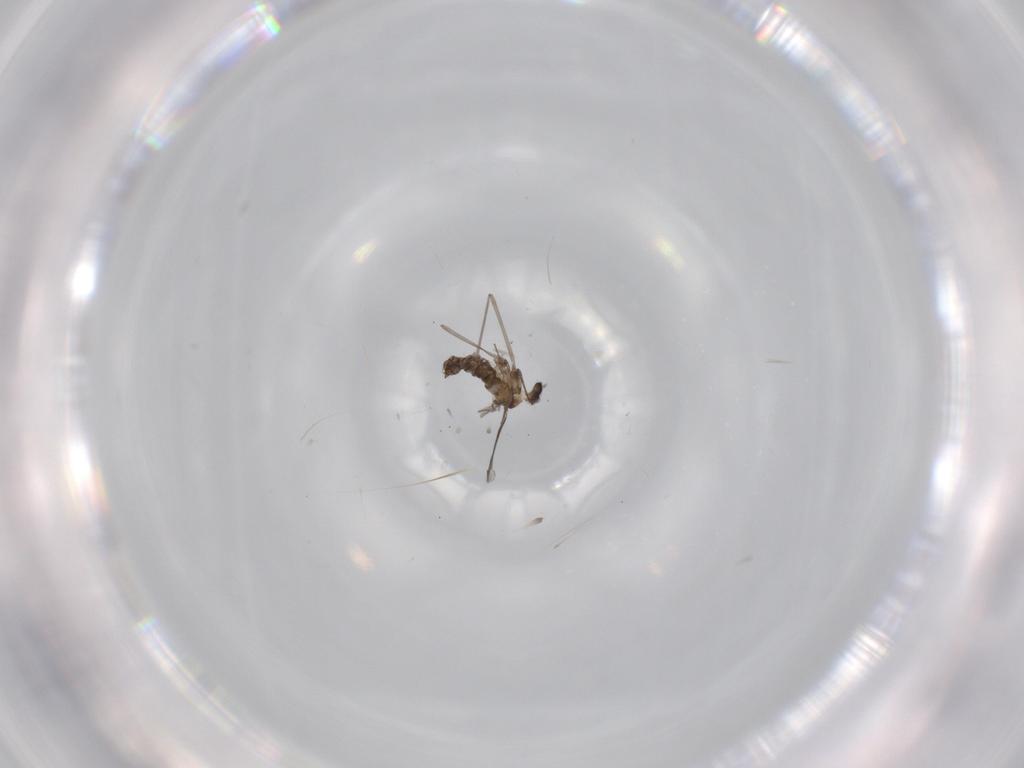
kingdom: Animalia
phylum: Arthropoda
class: Insecta
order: Diptera
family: Cecidomyiidae
